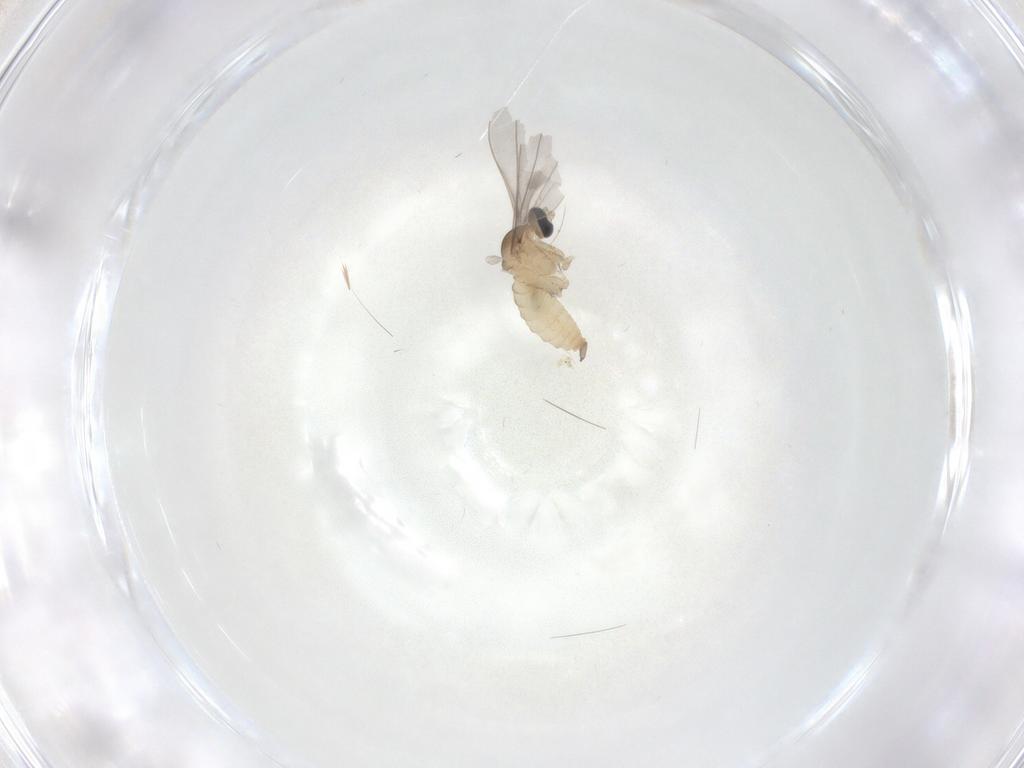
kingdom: Animalia
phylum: Arthropoda
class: Insecta
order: Diptera
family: Cecidomyiidae
